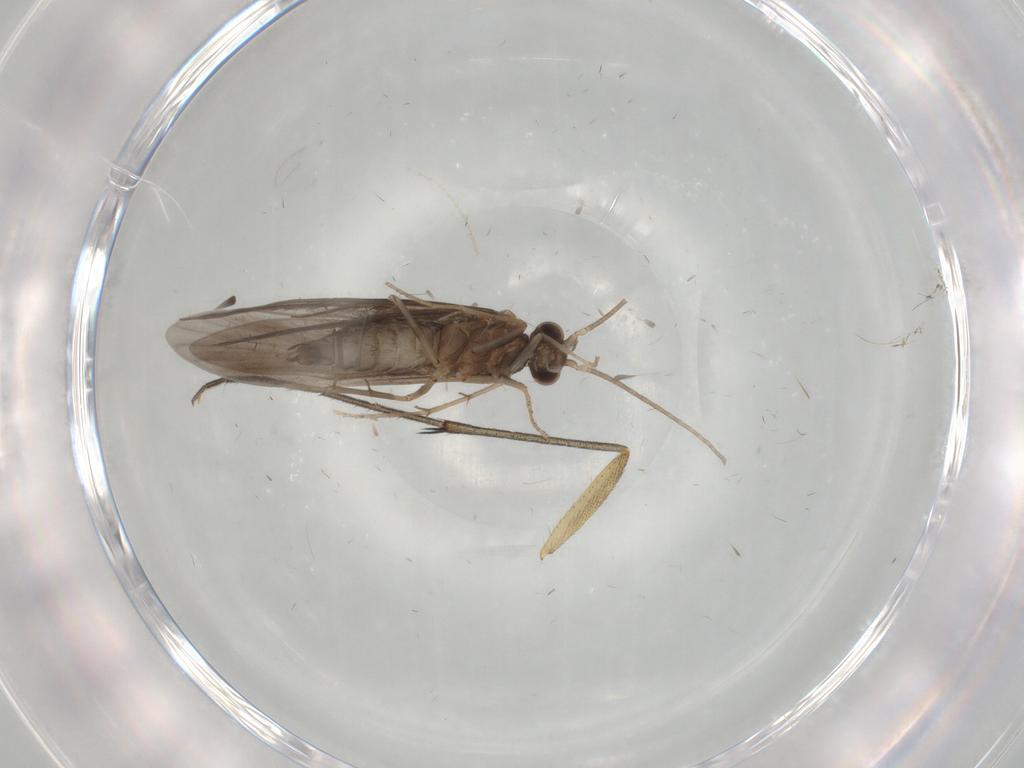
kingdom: Animalia
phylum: Arthropoda
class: Insecta
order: Diptera
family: Mycetophilidae
